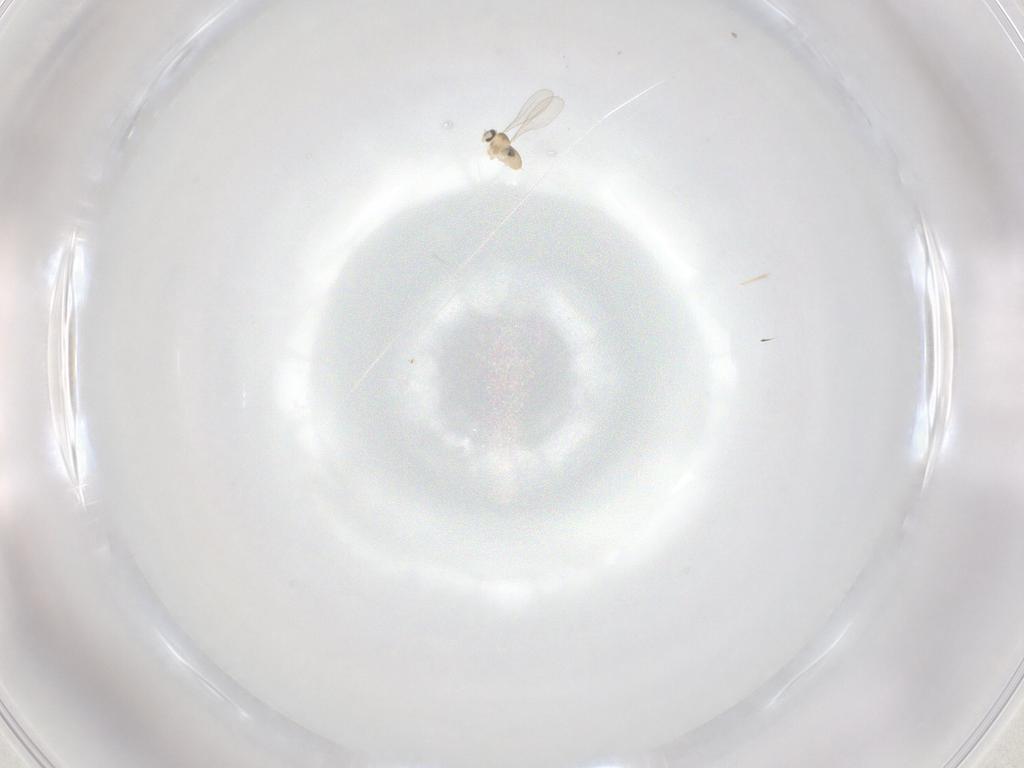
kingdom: Animalia
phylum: Arthropoda
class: Insecta
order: Diptera
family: Cecidomyiidae
